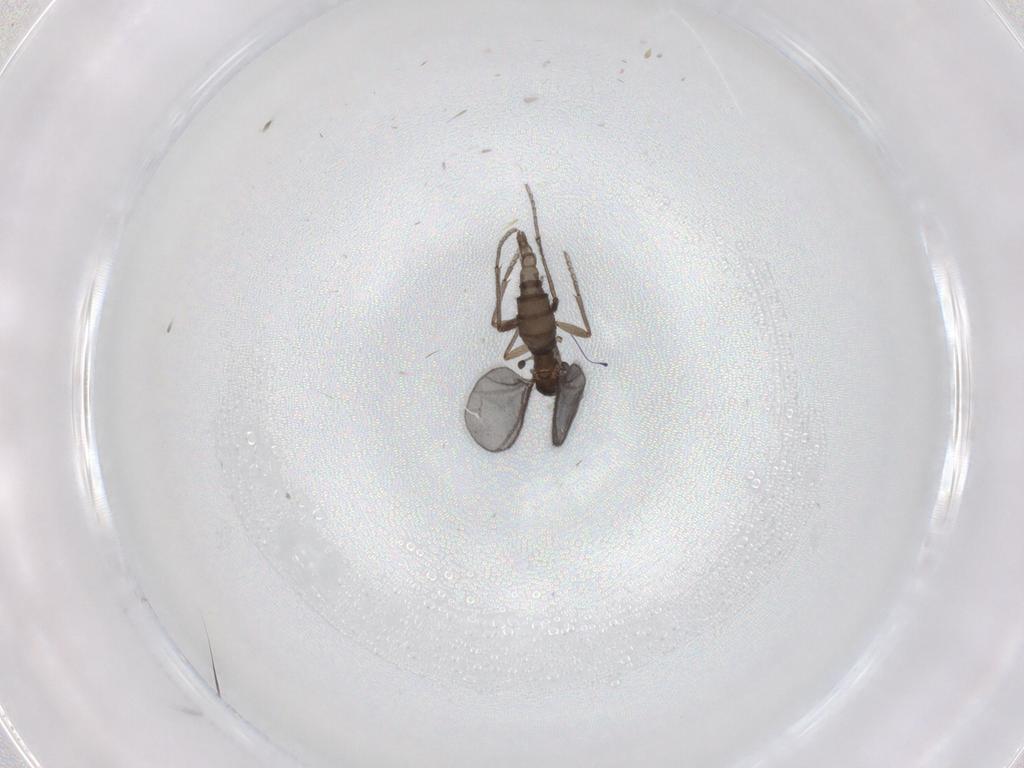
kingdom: Animalia
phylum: Arthropoda
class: Insecta
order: Diptera
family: Sciaridae
